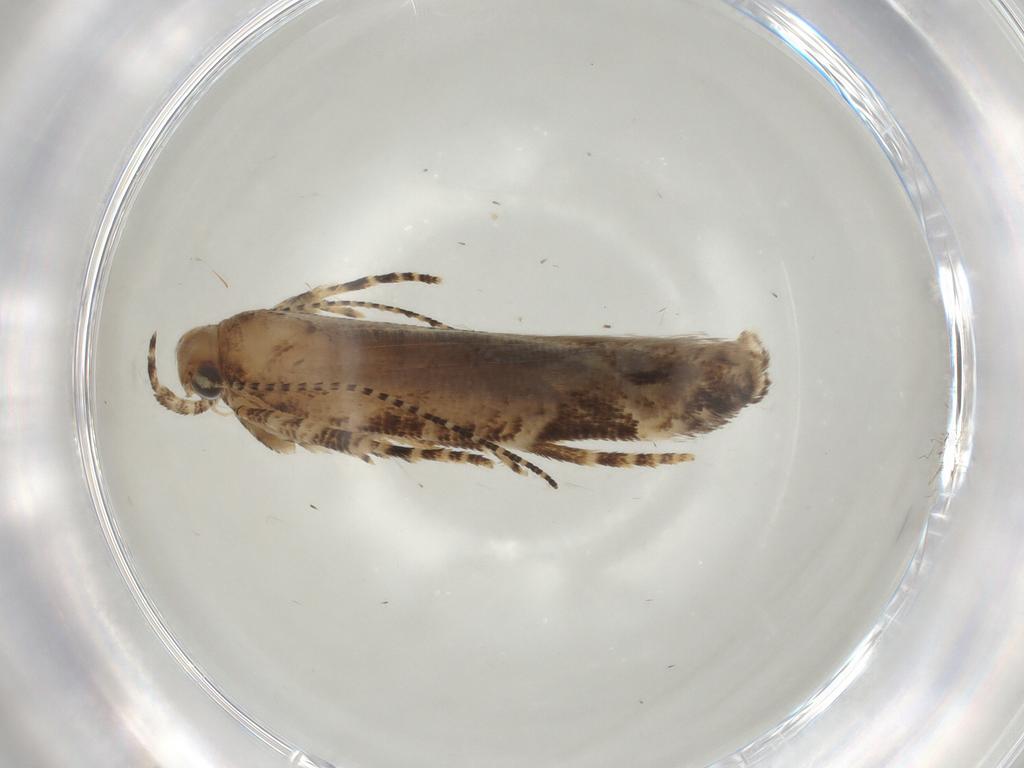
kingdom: Animalia
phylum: Arthropoda
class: Insecta
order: Lepidoptera
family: Gelechiidae
